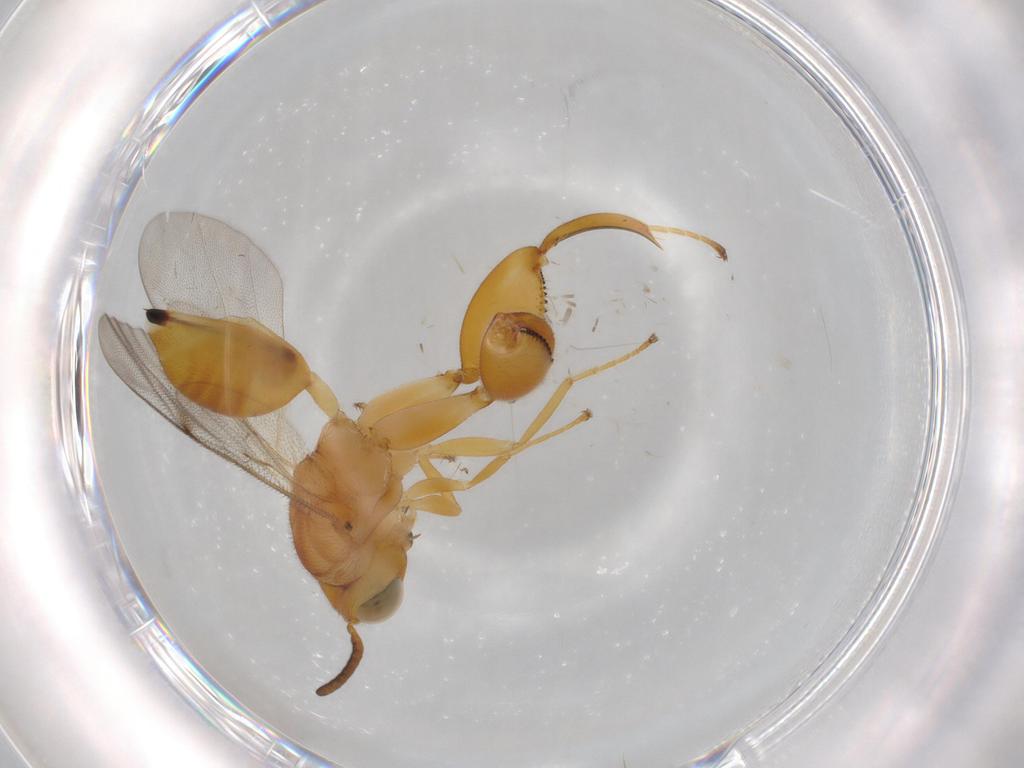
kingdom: Animalia
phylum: Arthropoda
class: Insecta
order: Hymenoptera
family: Chalcididae
